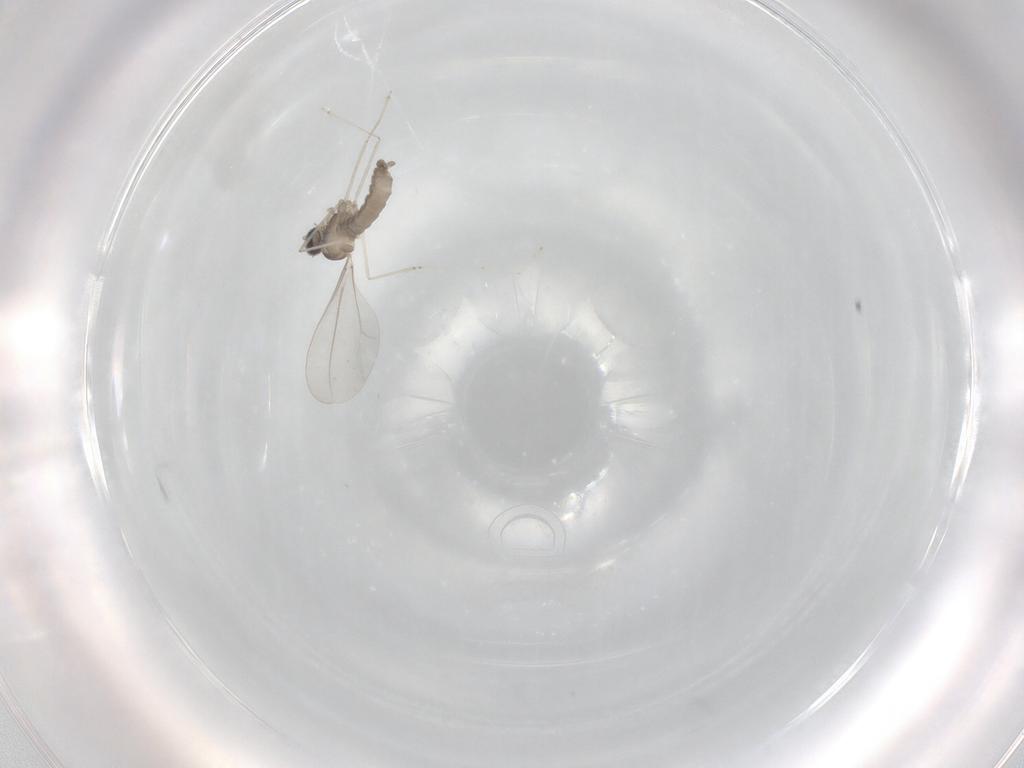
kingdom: Animalia
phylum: Arthropoda
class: Insecta
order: Diptera
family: Cecidomyiidae
